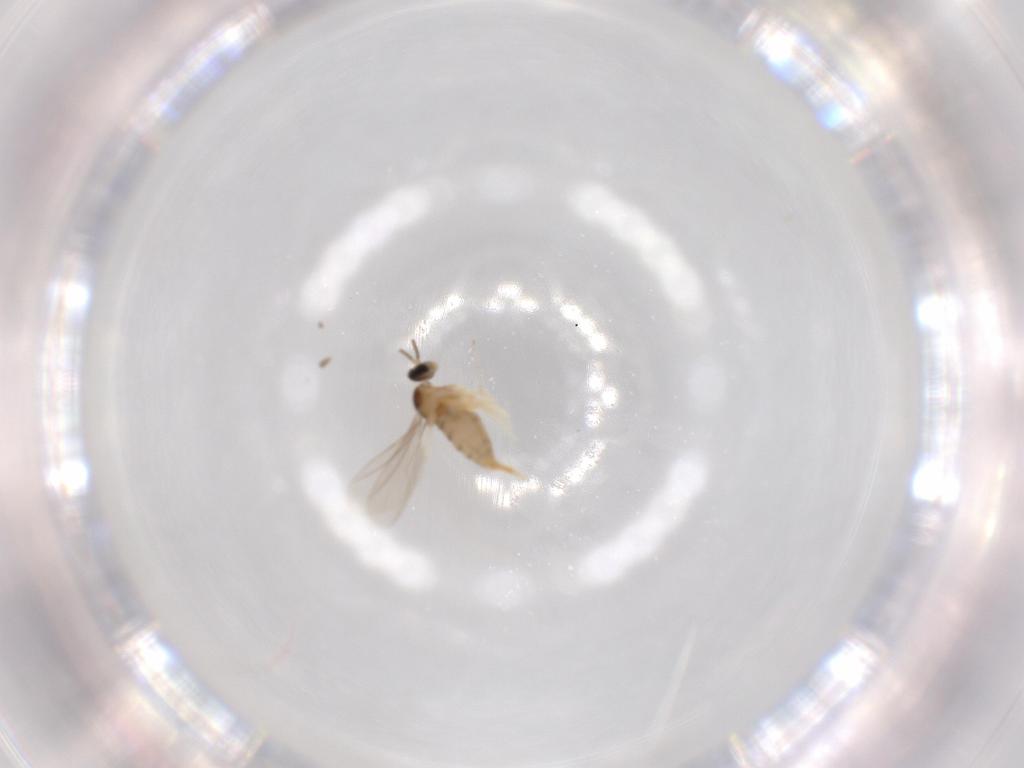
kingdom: Animalia
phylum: Arthropoda
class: Insecta
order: Diptera
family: Cecidomyiidae
